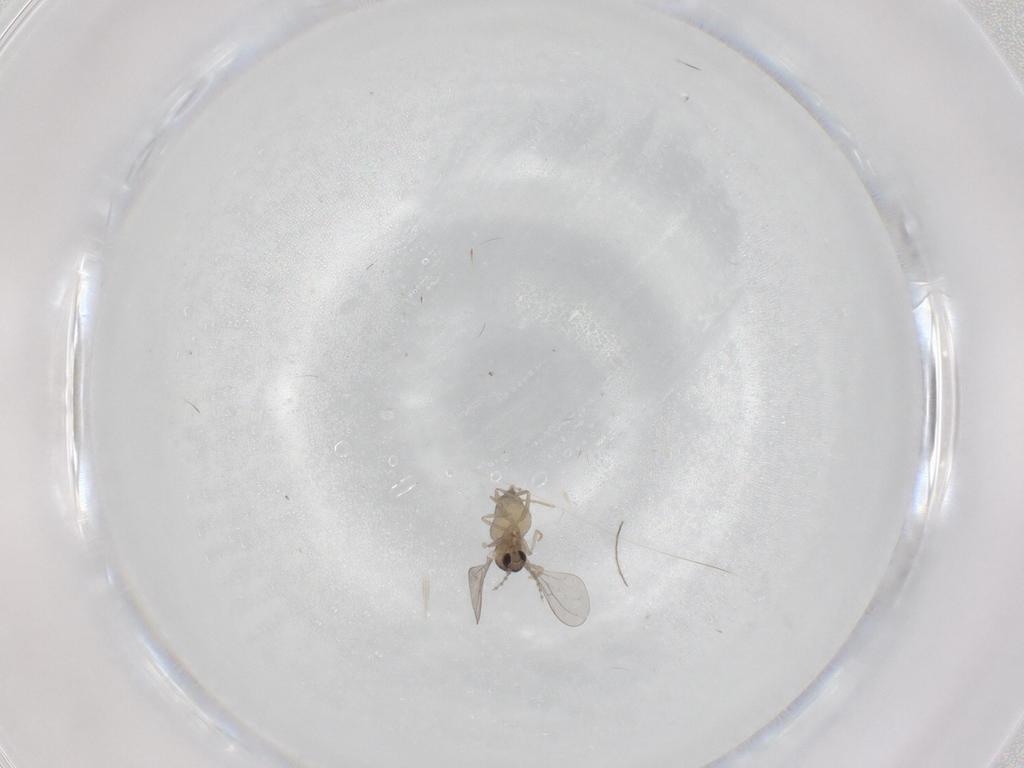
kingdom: Animalia
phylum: Arthropoda
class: Insecta
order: Diptera
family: Cecidomyiidae
